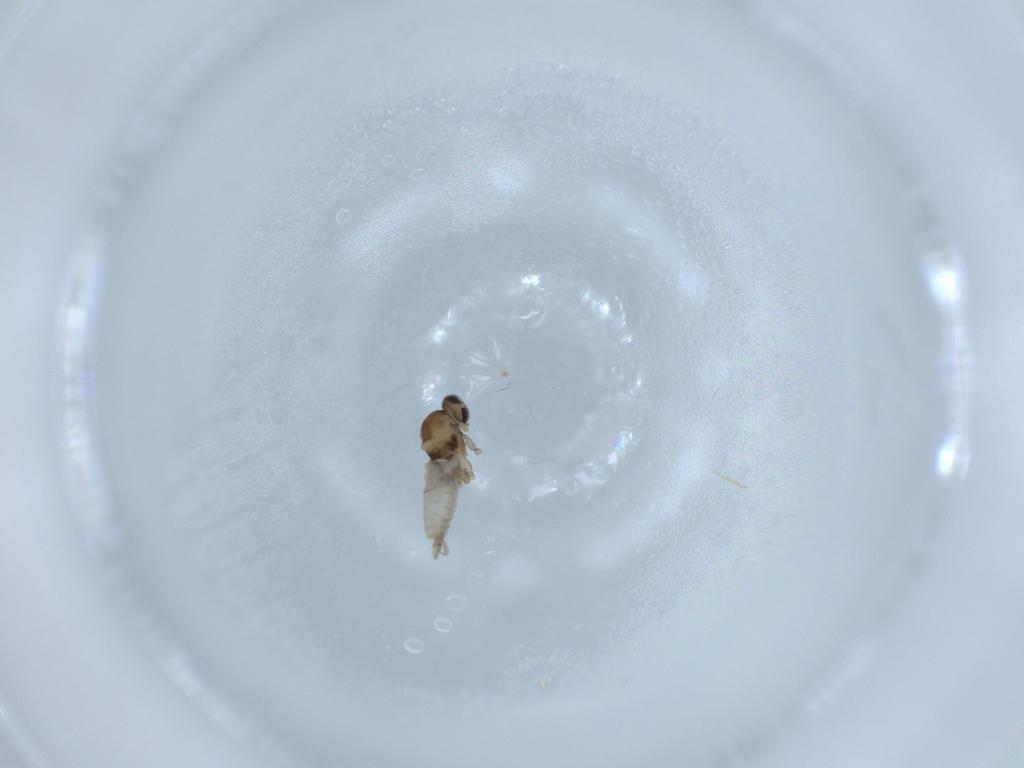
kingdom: Animalia
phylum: Arthropoda
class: Insecta
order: Diptera
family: Cecidomyiidae
